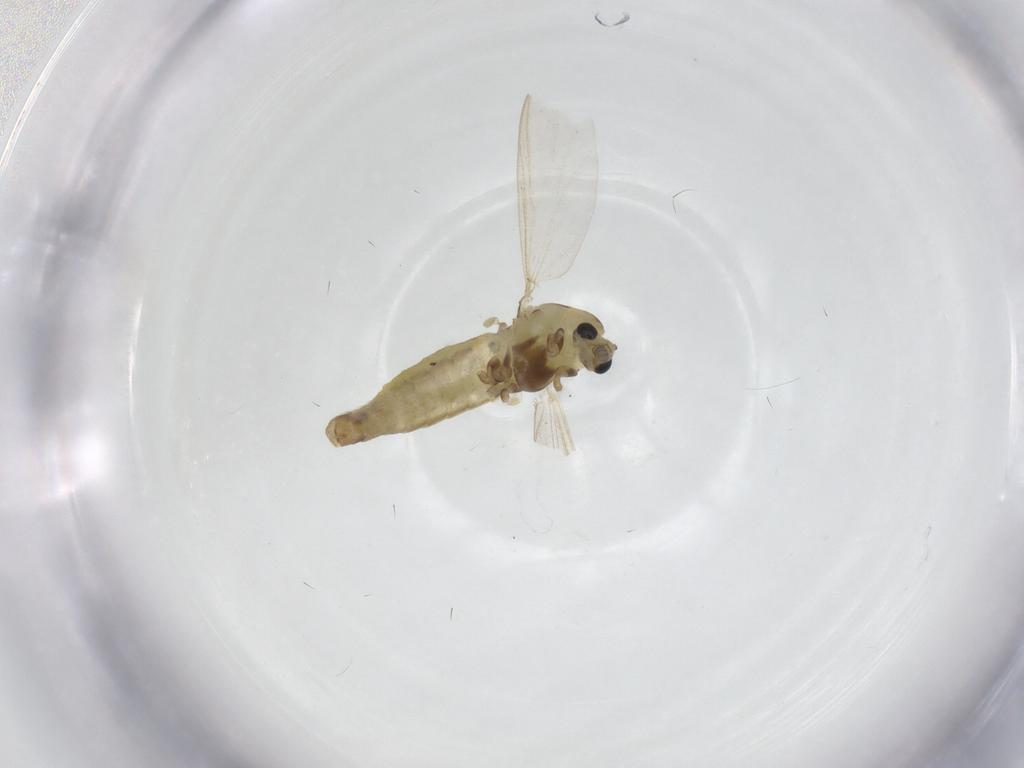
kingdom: Animalia
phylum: Arthropoda
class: Insecta
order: Diptera
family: Chironomidae
